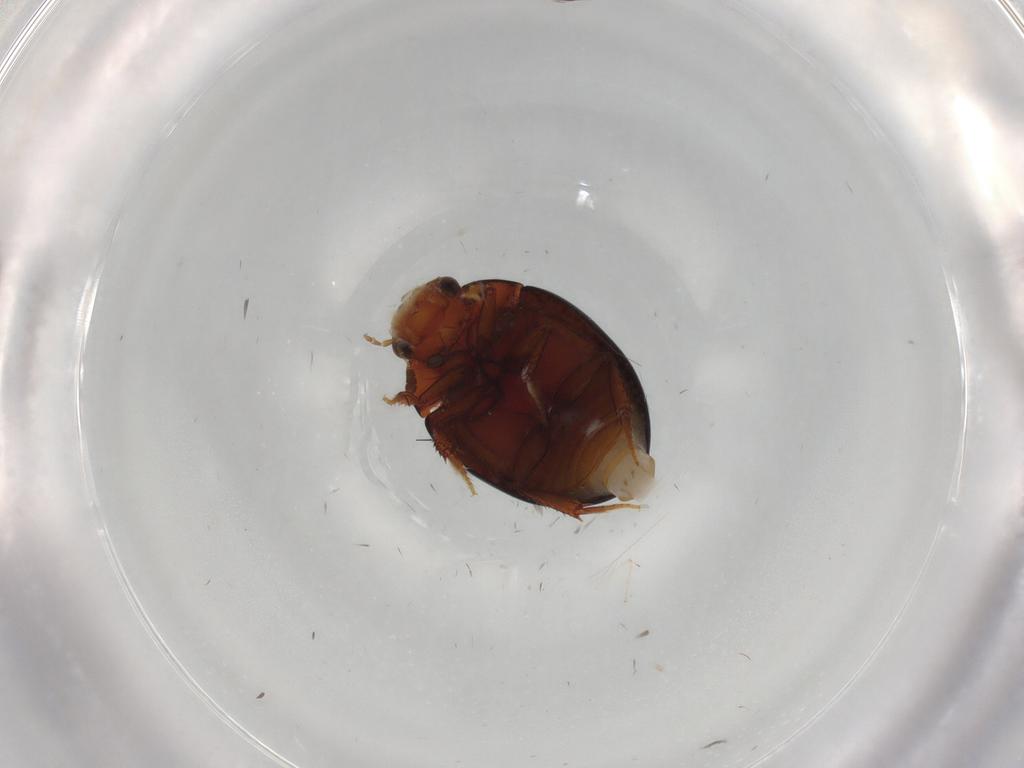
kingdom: Animalia
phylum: Arthropoda
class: Insecta
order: Coleoptera
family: Hydrophilidae
